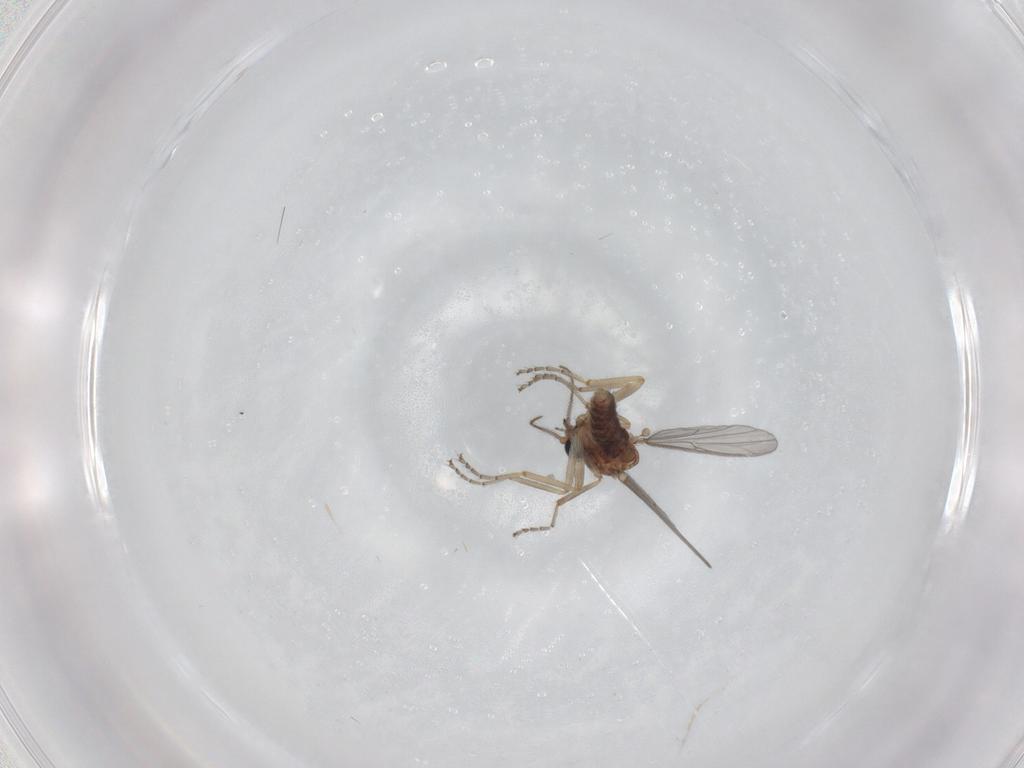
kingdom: Animalia
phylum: Arthropoda
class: Insecta
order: Diptera
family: Ceratopogonidae
